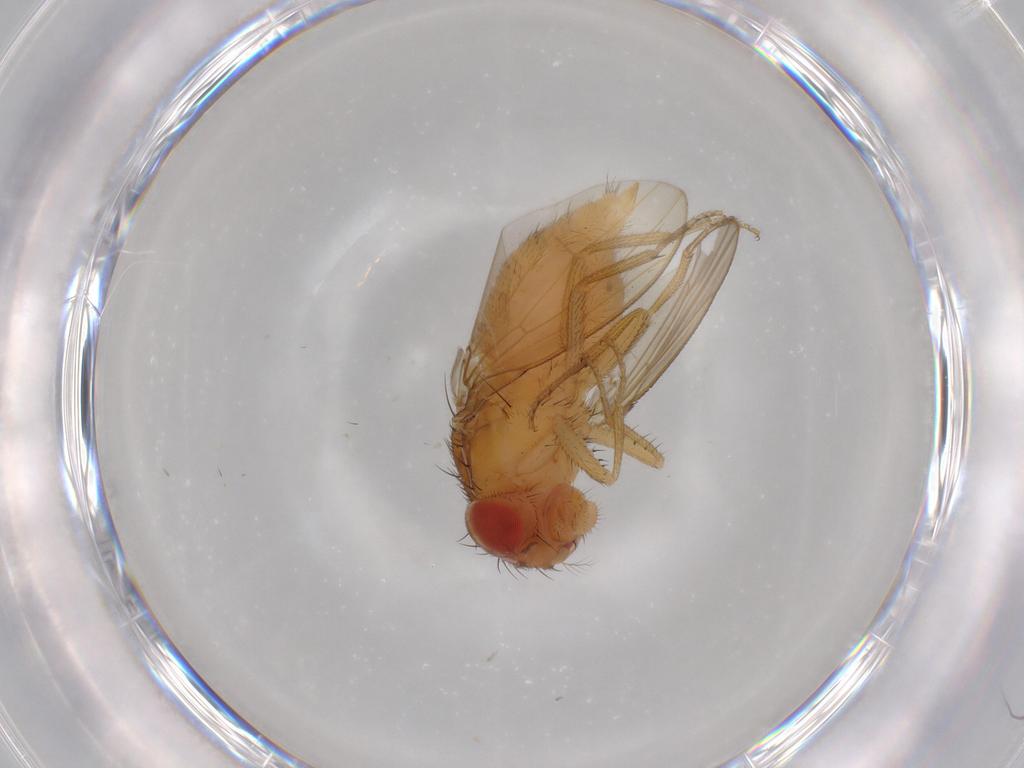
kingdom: Animalia
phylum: Arthropoda
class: Insecta
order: Diptera
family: Drosophilidae
